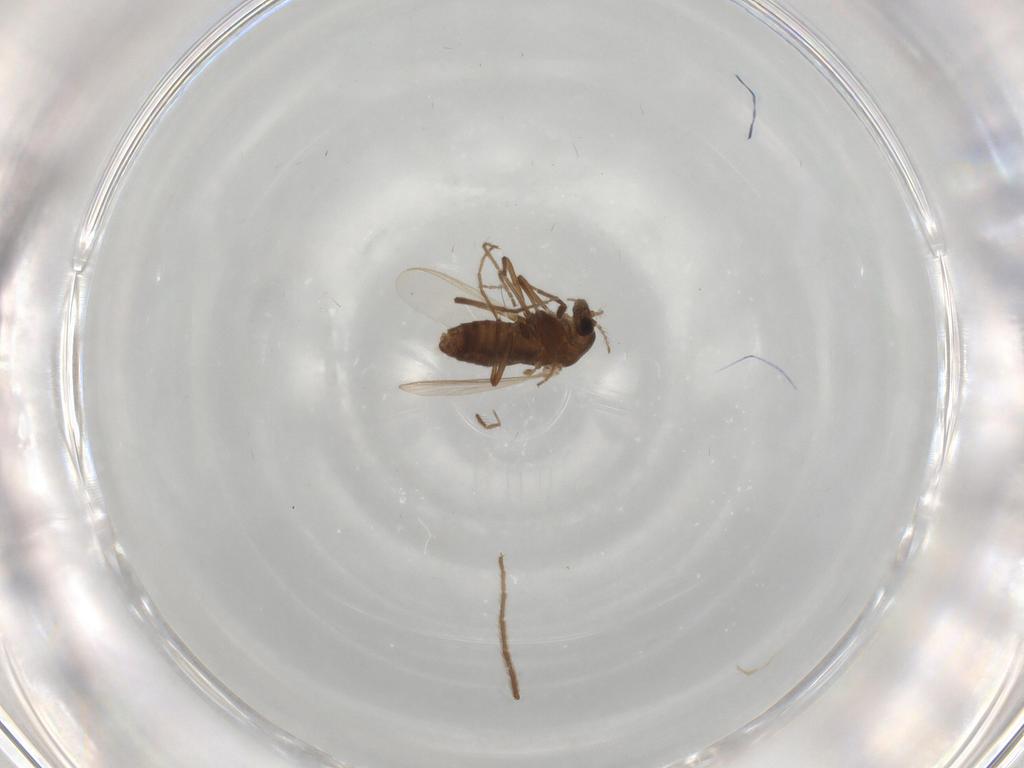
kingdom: Animalia
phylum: Arthropoda
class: Insecta
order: Diptera
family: Chironomidae
